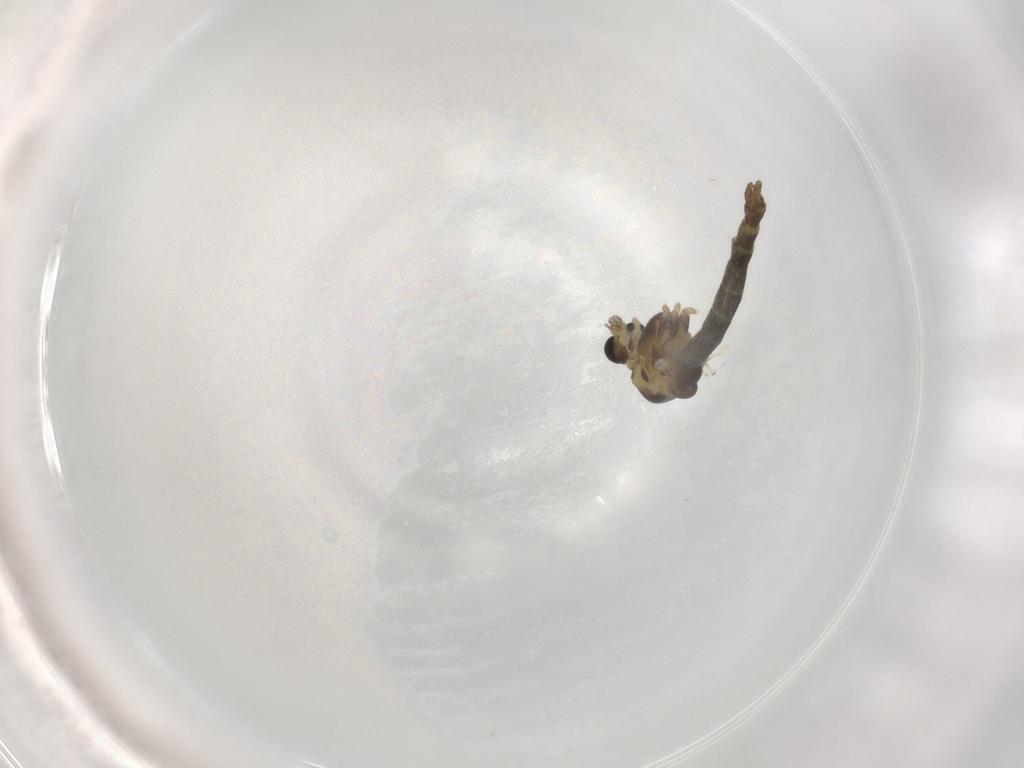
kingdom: Animalia
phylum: Arthropoda
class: Insecta
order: Diptera
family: Chironomidae
